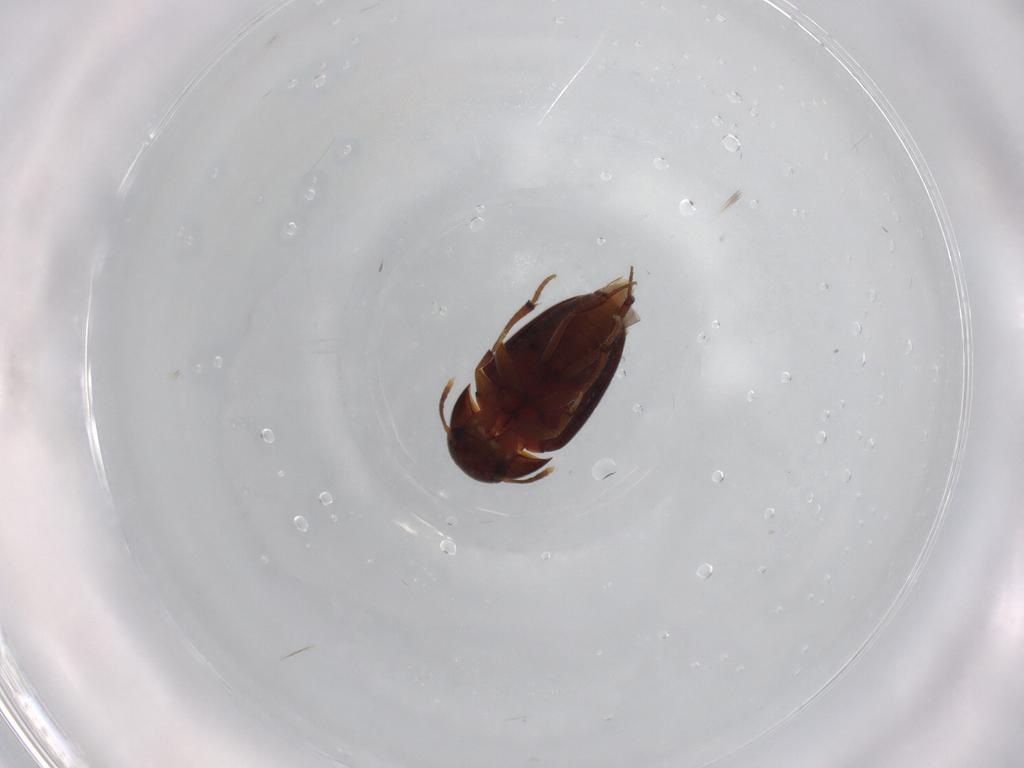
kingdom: Animalia
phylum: Arthropoda
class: Insecta
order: Coleoptera
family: Leiodidae
